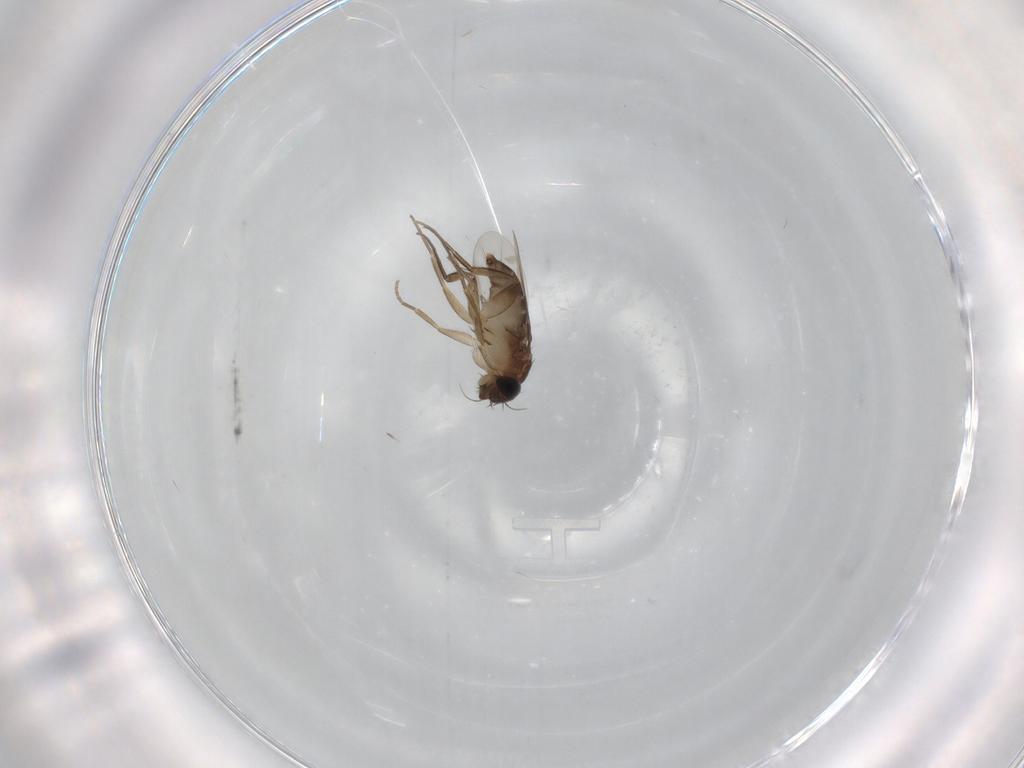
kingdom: Animalia
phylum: Arthropoda
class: Insecta
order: Diptera
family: Phoridae
